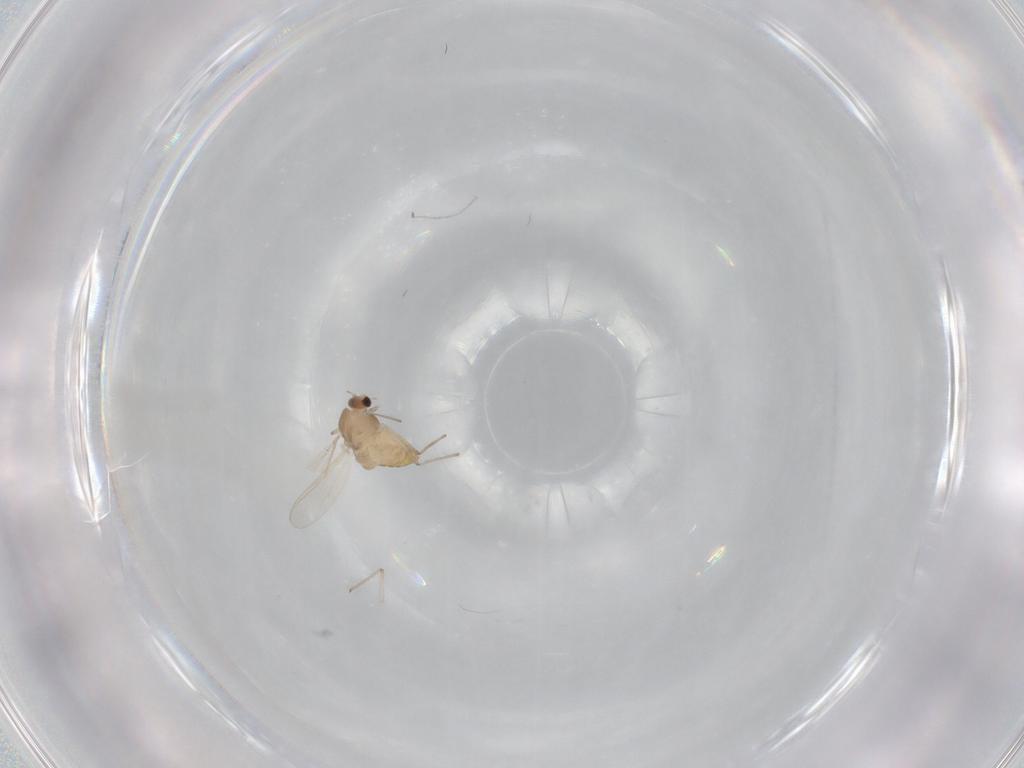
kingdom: Animalia
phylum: Arthropoda
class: Insecta
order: Diptera
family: Chironomidae
